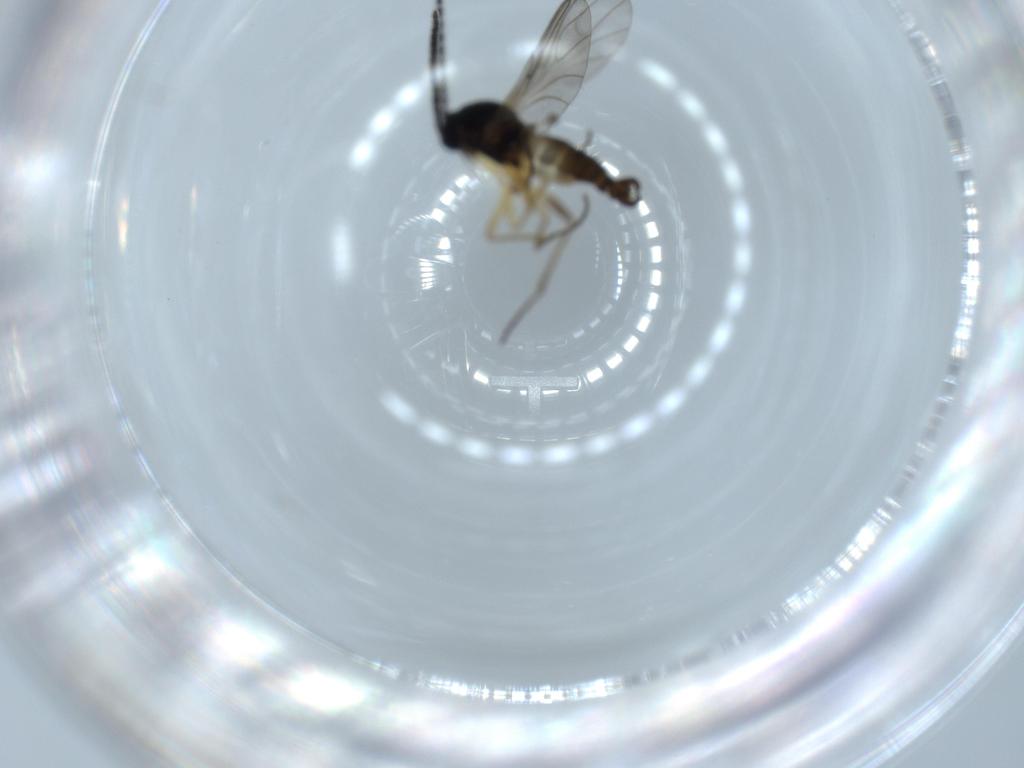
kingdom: Animalia
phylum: Arthropoda
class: Insecta
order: Diptera
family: Sciaridae
